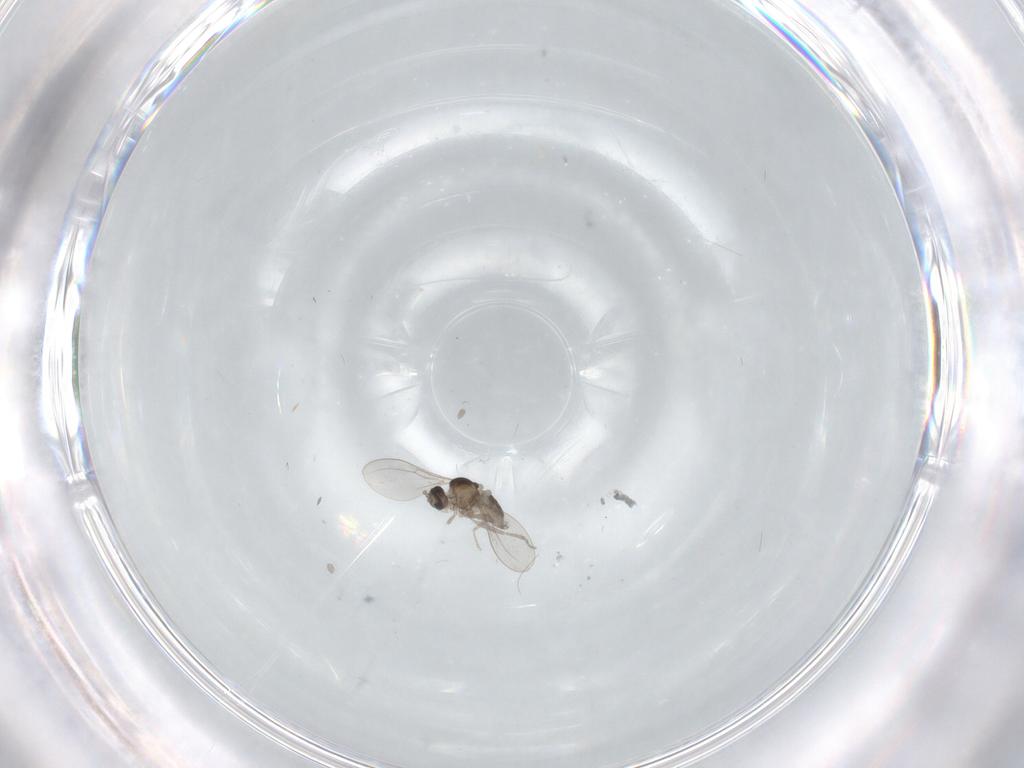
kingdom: Animalia
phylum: Arthropoda
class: Insecta
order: Diptera
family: Cecidomyiidae
